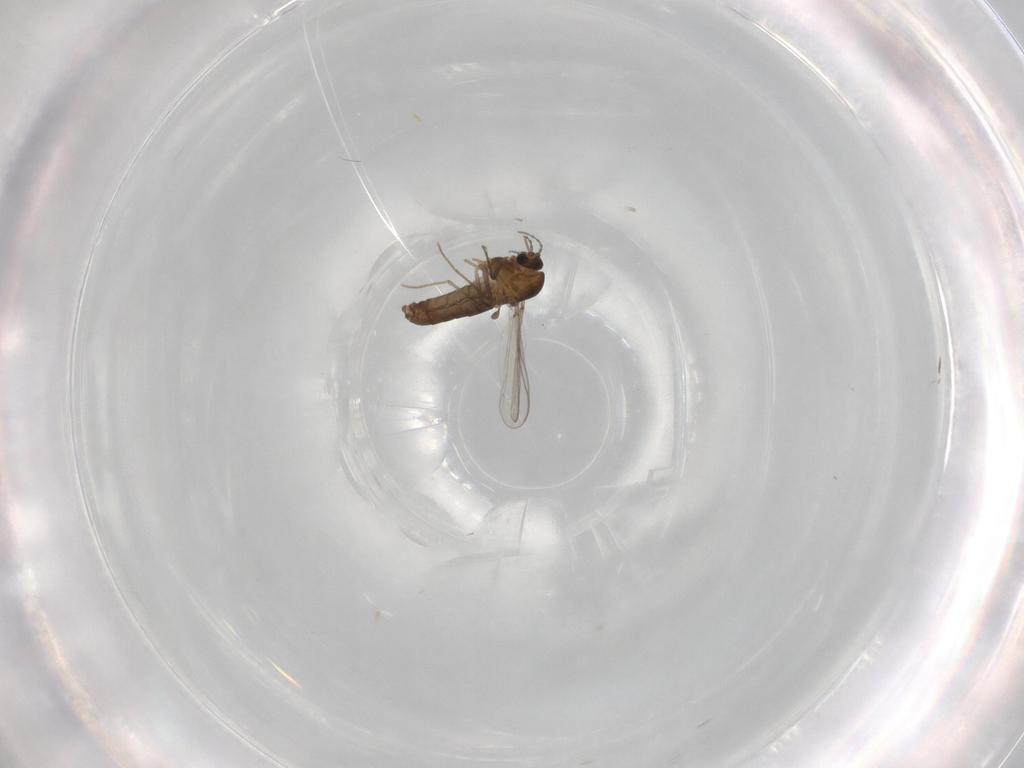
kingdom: Animalia
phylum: Arthropoda
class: Insecta
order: Diptera
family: Chironomidae
